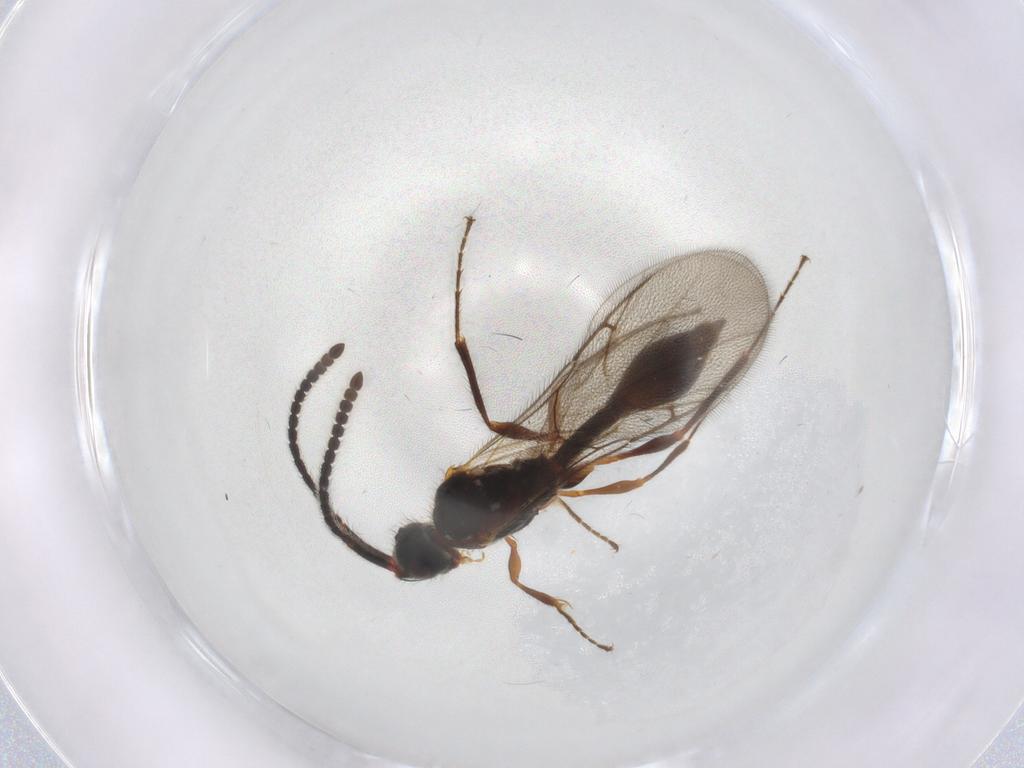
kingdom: Animalia
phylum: Arthropoda
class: Insecta
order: Hymenoptera
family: Diapriidae
